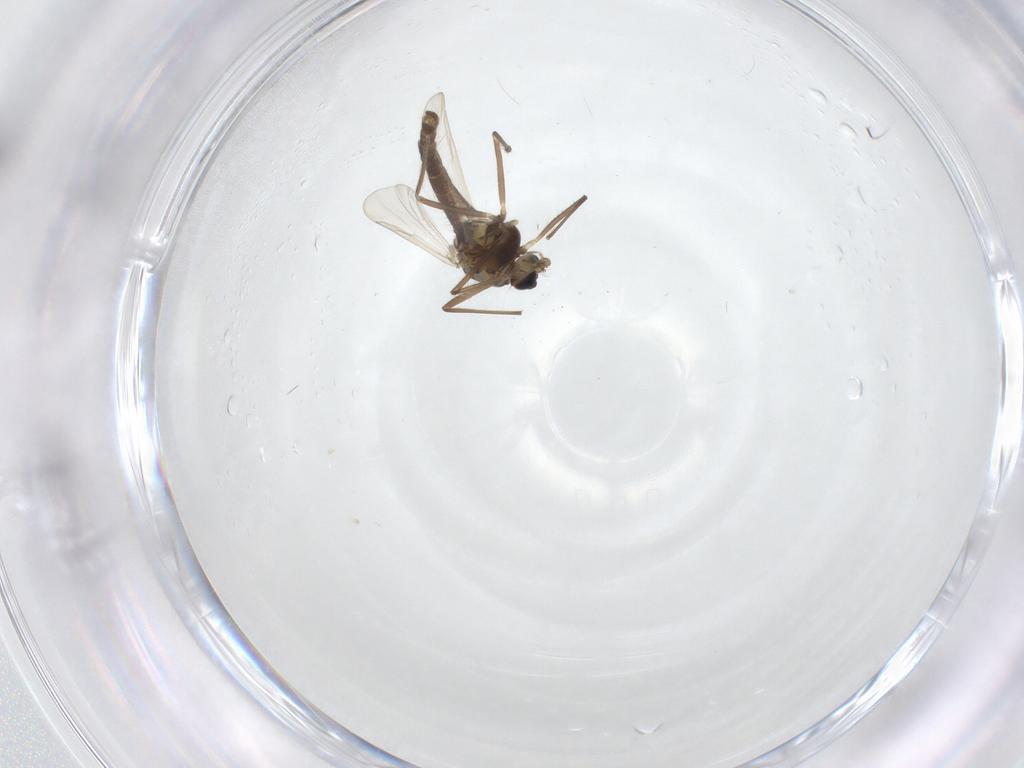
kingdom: Animalia
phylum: Arthropoda
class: Insecta
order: Diptera
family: Chironomidae
